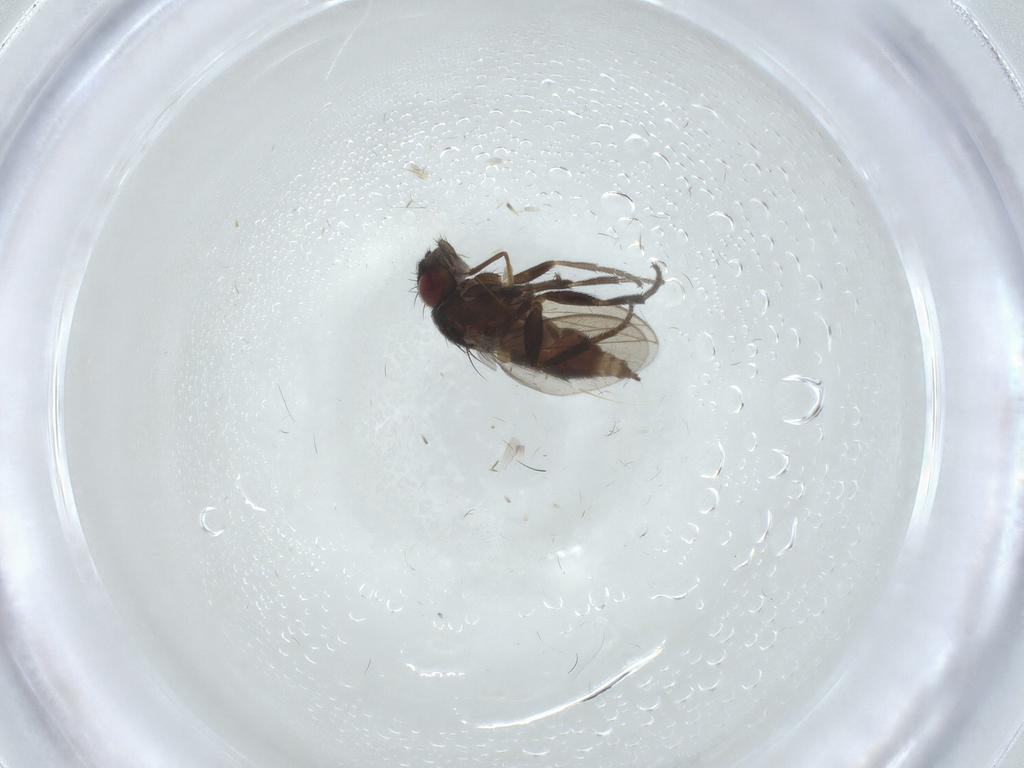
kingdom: Animalia
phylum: Arthropoda
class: Insecta
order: Diptera
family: Milichiidae
